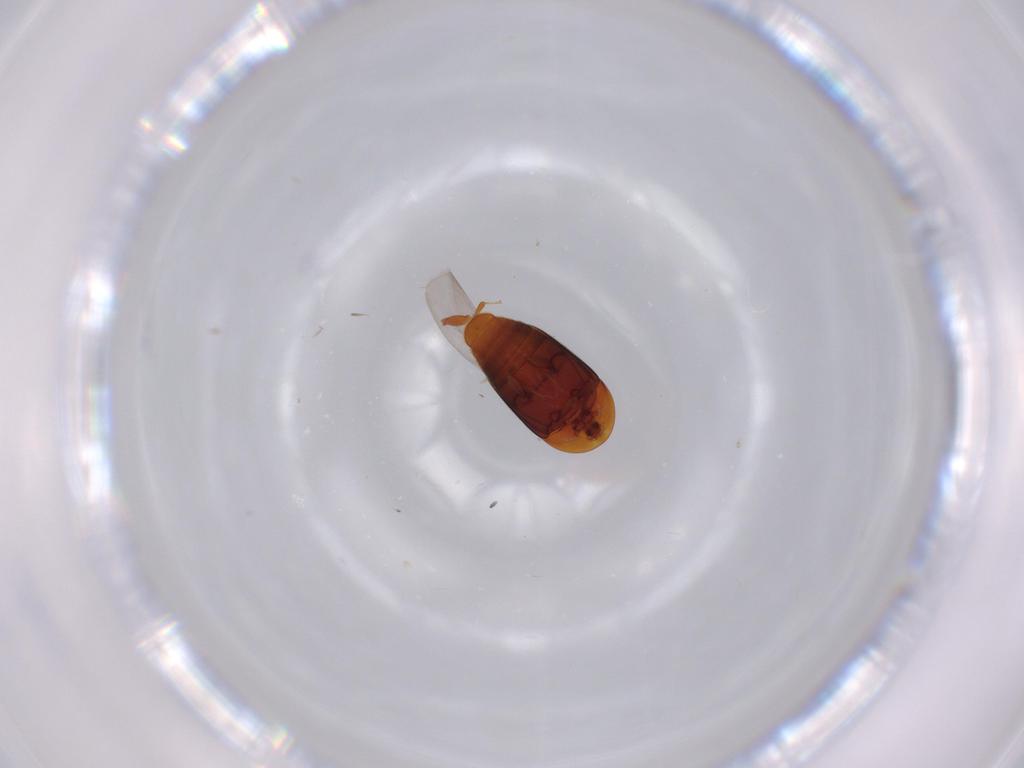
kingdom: Animalia
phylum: Arthropoda
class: Insecta
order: Coleoptera
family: Corylophidae
